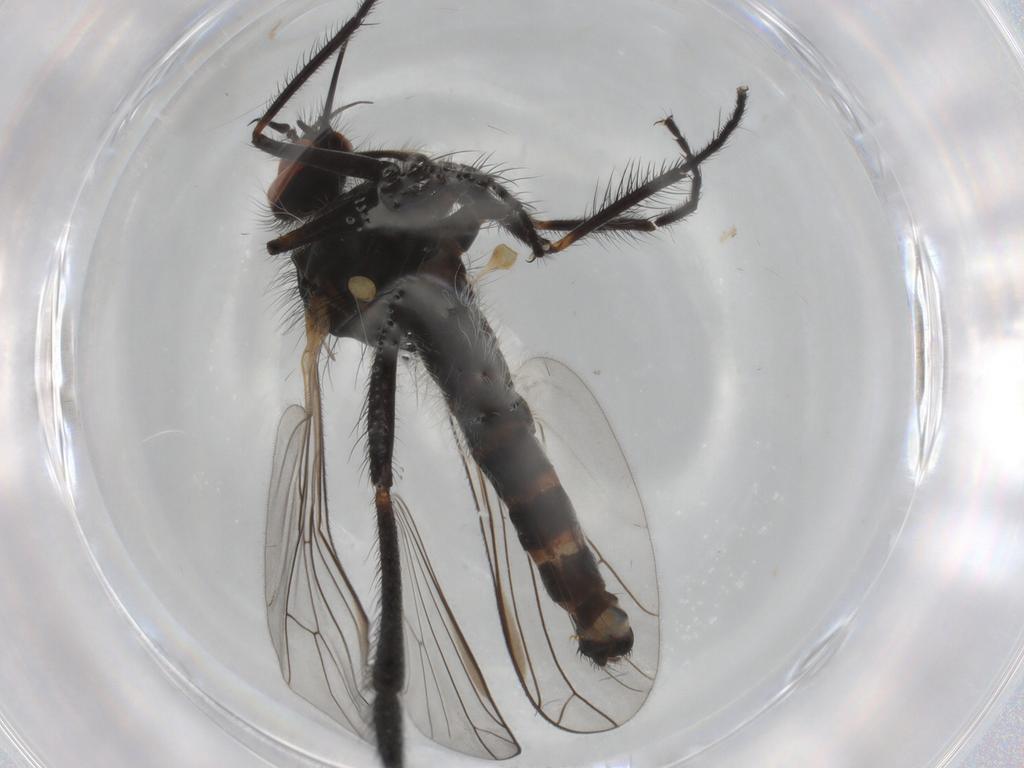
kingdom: Animalia
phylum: Arthropoda
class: Insecta
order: Diptera
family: Empididae
